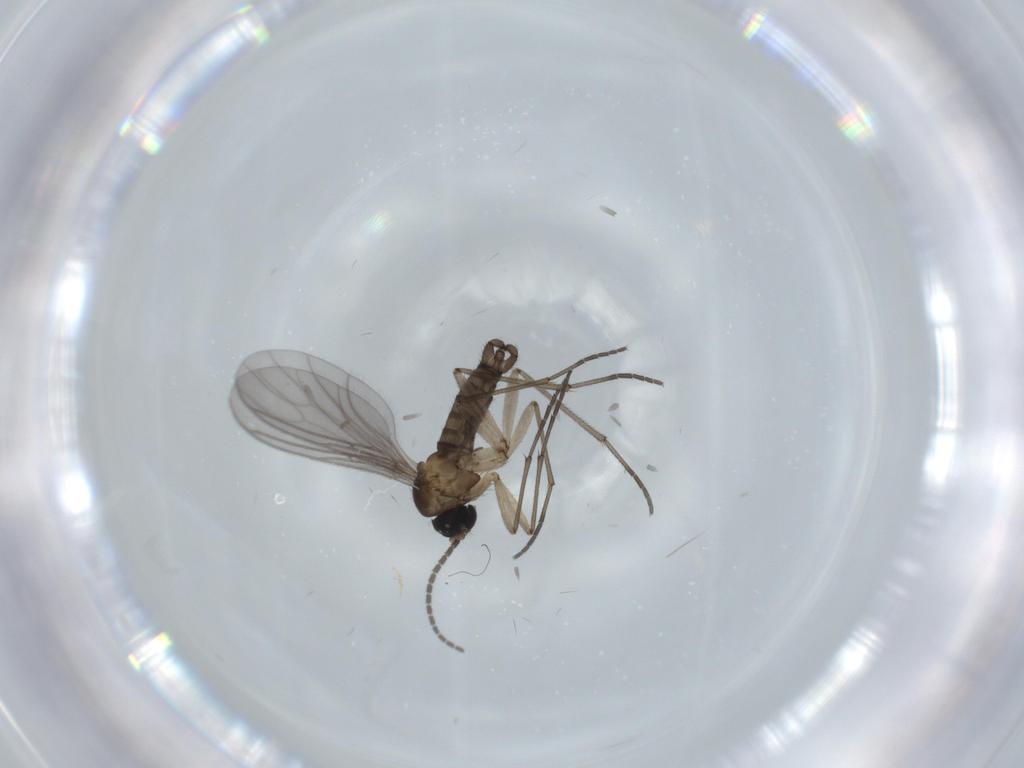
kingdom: Animalia
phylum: Arthropoda
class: Insecta
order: Diptera
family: Sciaridae
